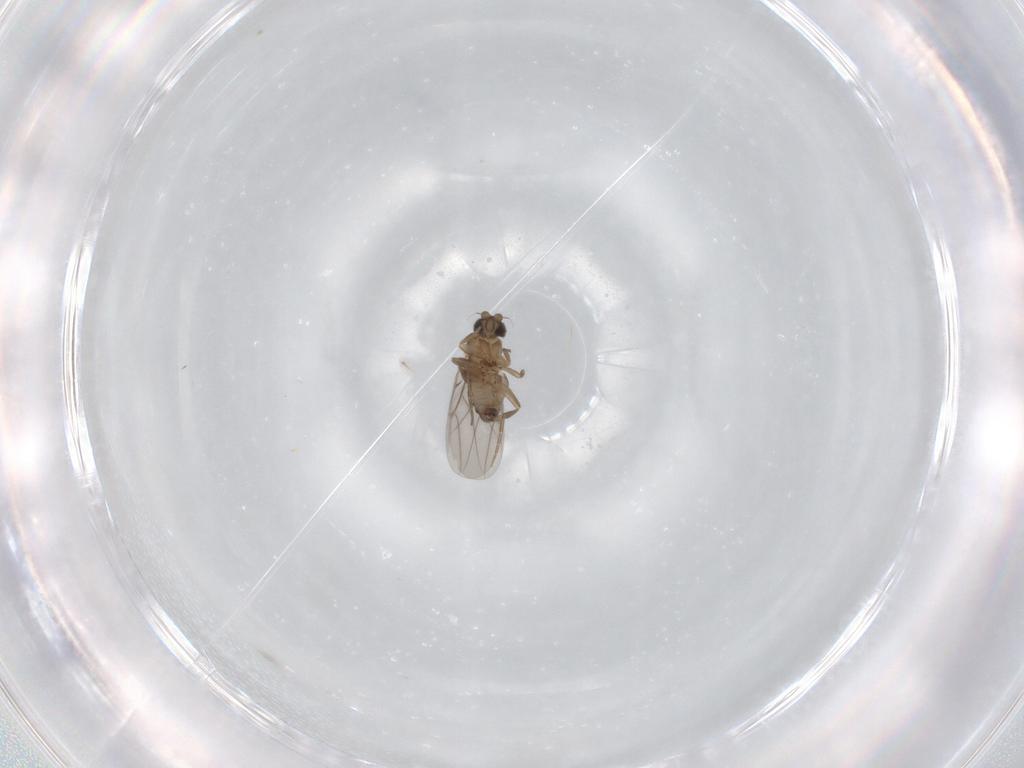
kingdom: Animalia
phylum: Arthropoda
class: Insecta
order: Diptera
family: Phoridae
